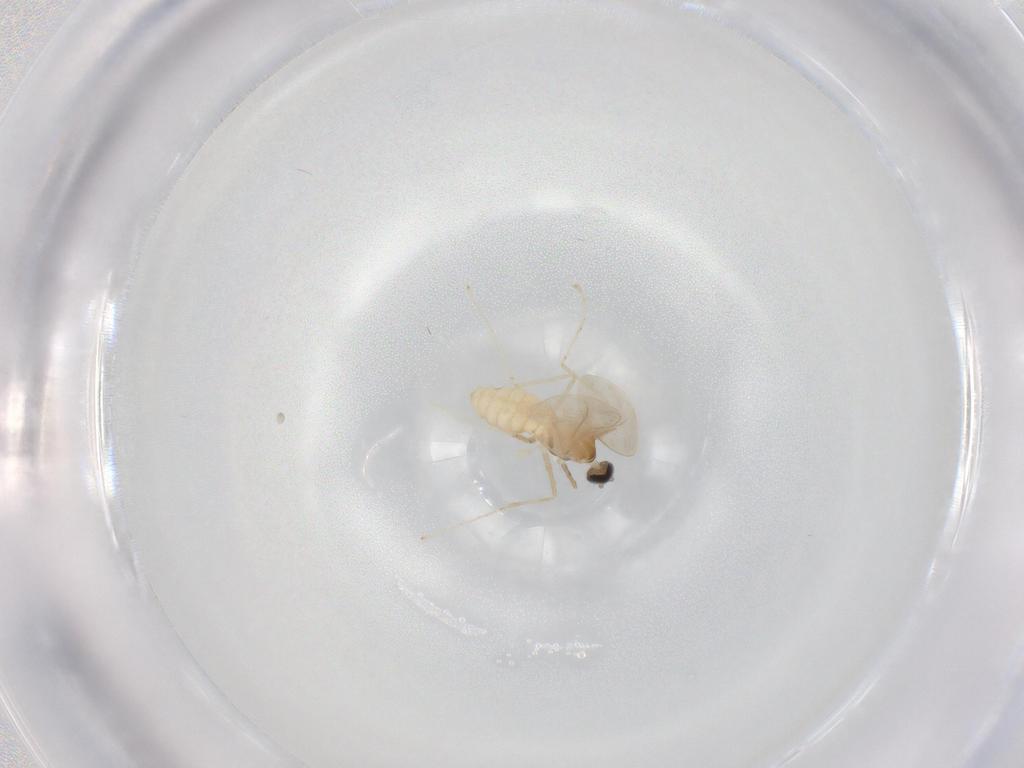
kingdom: Animalia
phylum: Arthropoda
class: Insecta
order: Diptera
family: Cecidomyiidae
